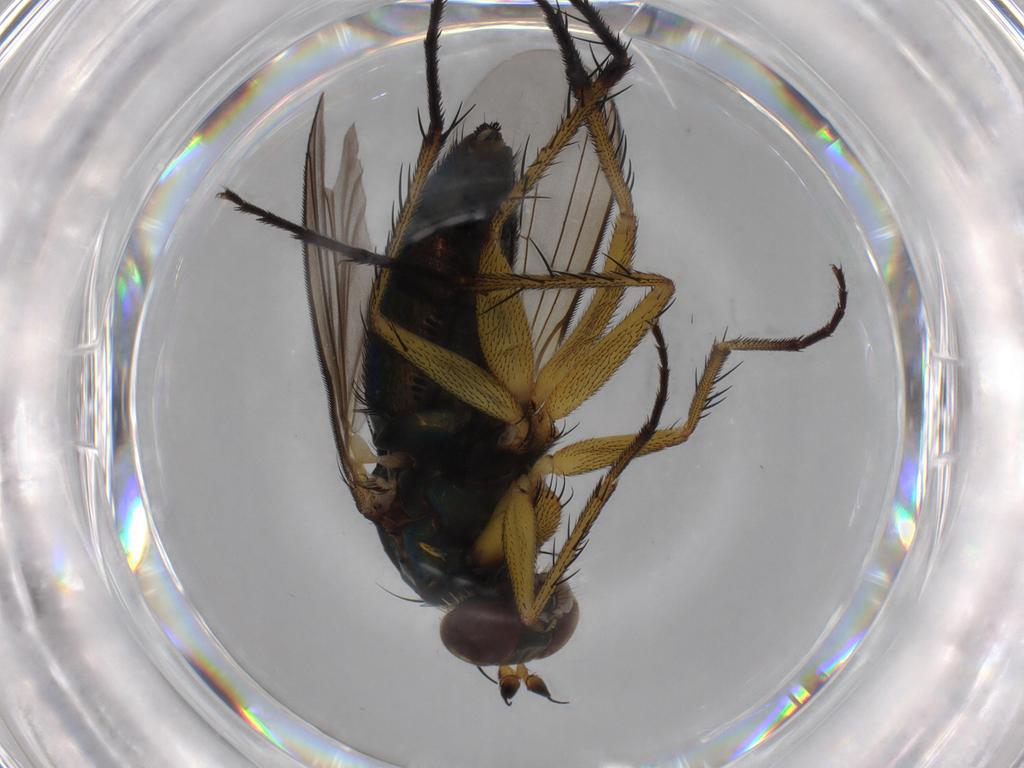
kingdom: Animalia
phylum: Arthropoda
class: Insecta
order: Diptera
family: Dolichopodidae
